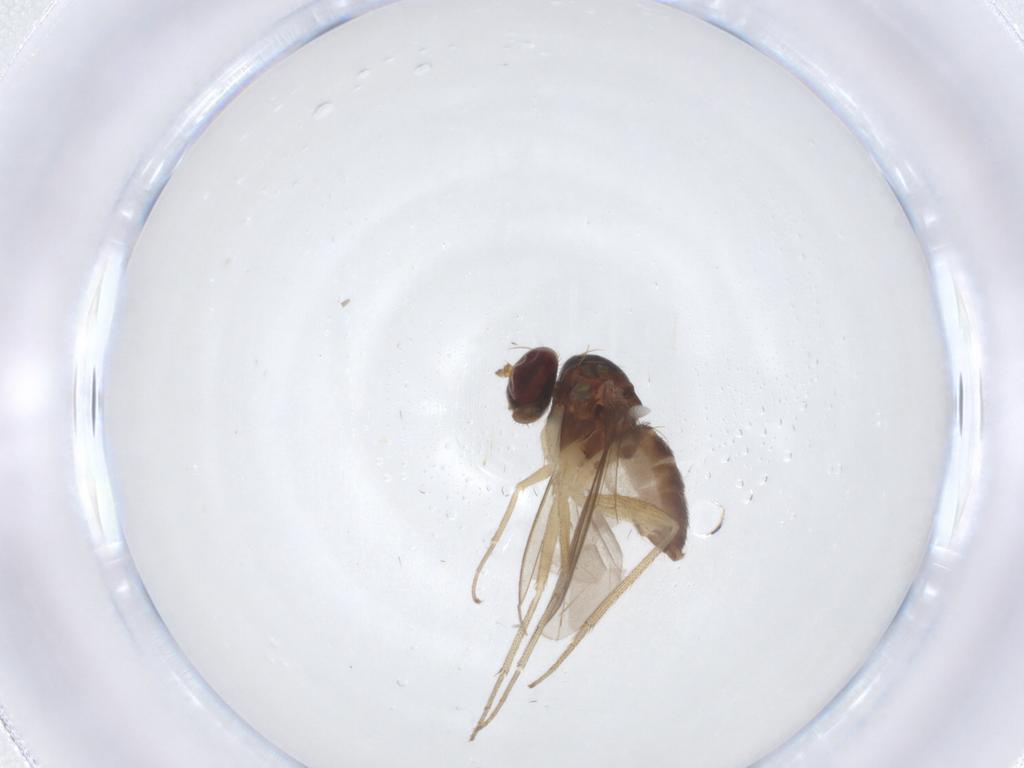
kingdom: Animalia
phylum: Arthropoda
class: Insecta
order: Diptera
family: Dolichopodidae
